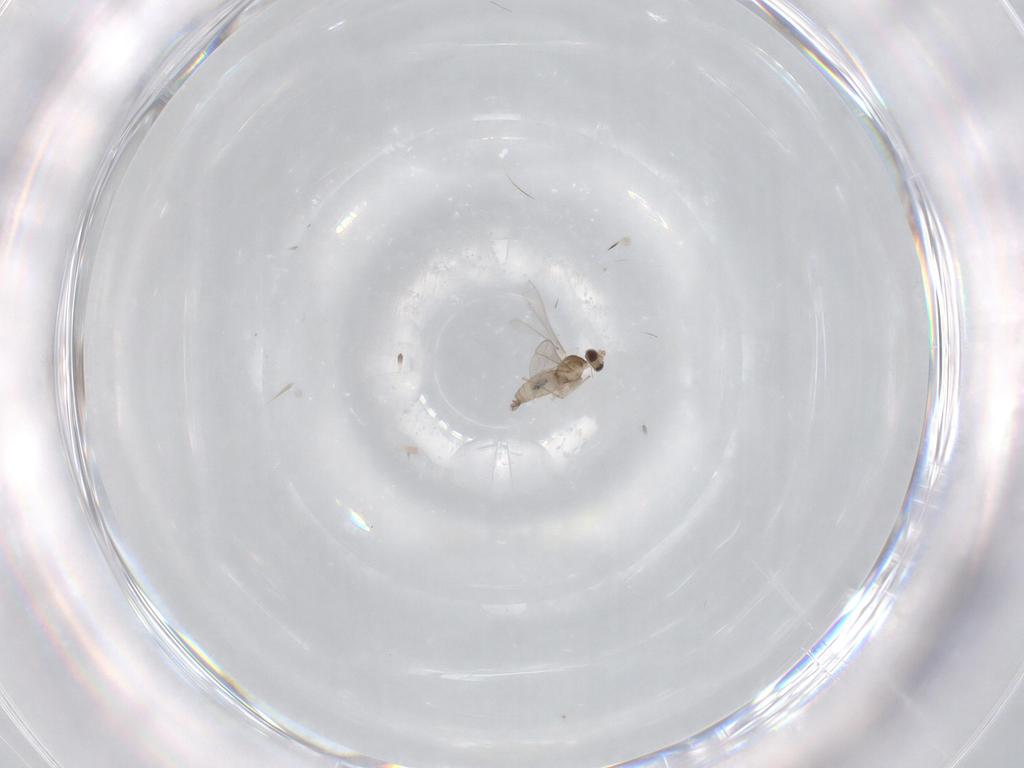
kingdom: Animalia
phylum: Arthropoda
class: Insecta
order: Diptera
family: Cecidomyiidae
